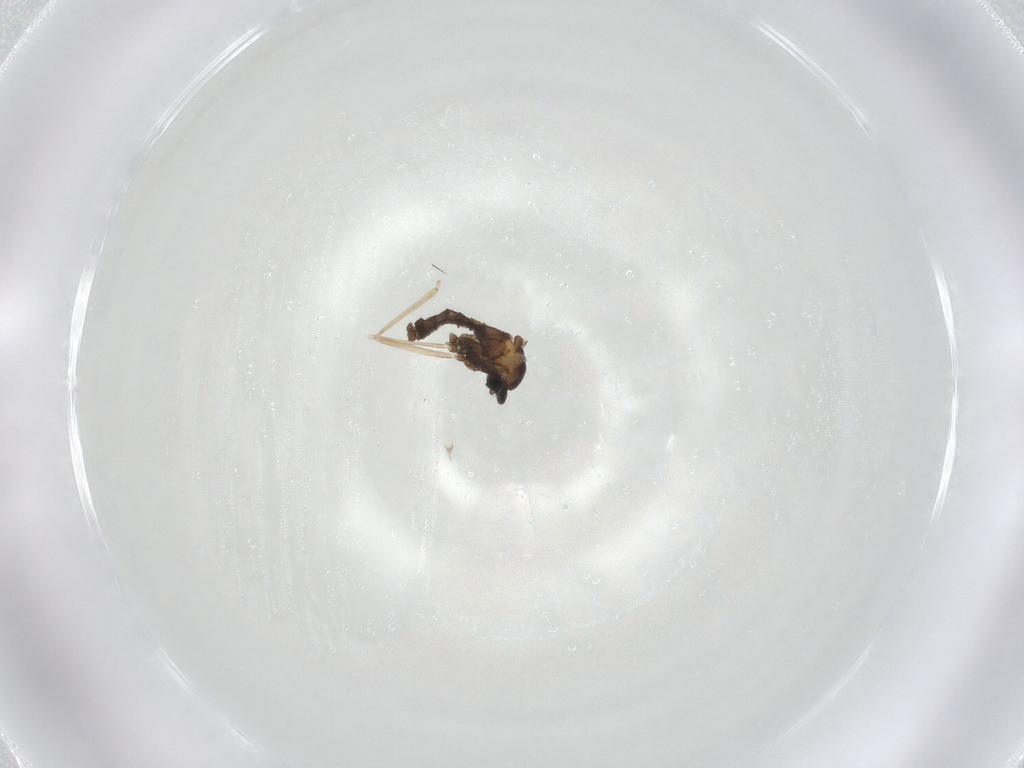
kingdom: Animalia
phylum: Arthropoda
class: Insecta
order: Diptera
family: Cecidomyiidae
